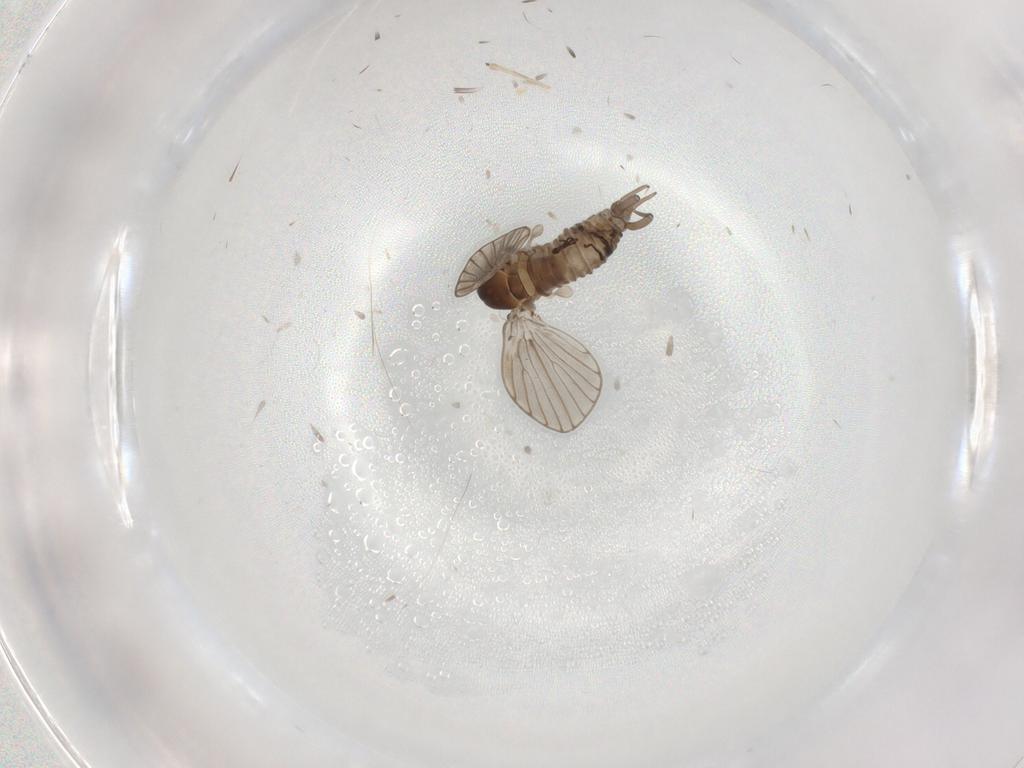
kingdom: Animalia
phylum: Arthropoda
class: Insecta
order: Diptera
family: Psychodidae
